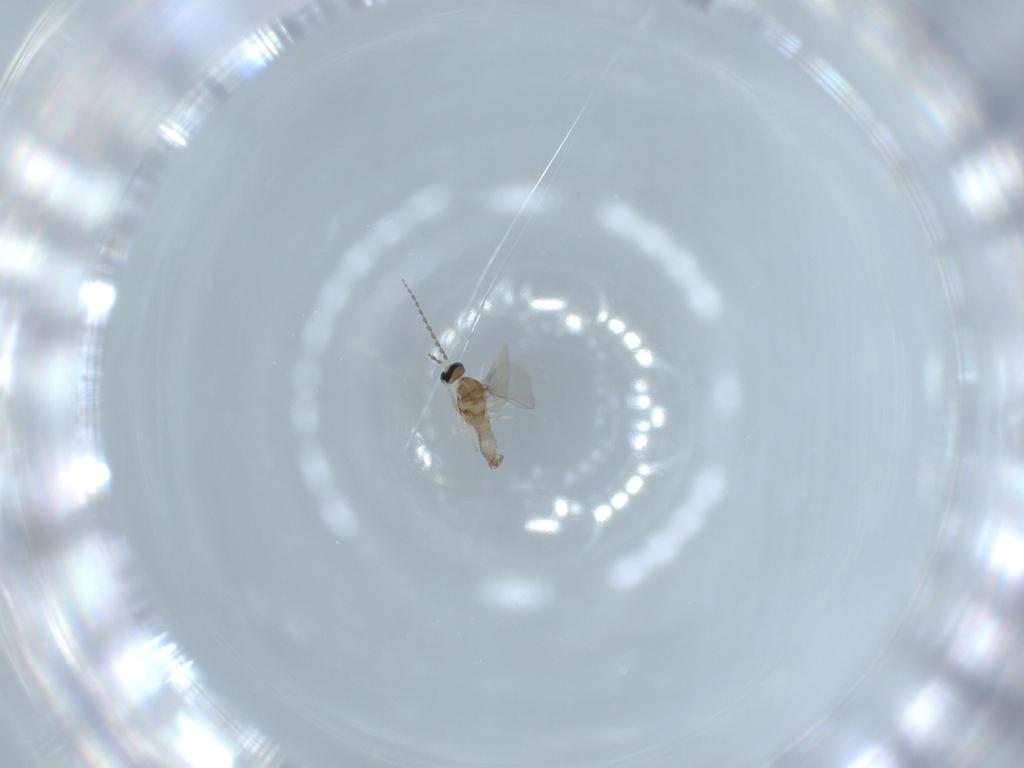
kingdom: Animalia
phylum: Arthropoda
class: Insecta
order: Diptera
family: Cecidomyiidae
